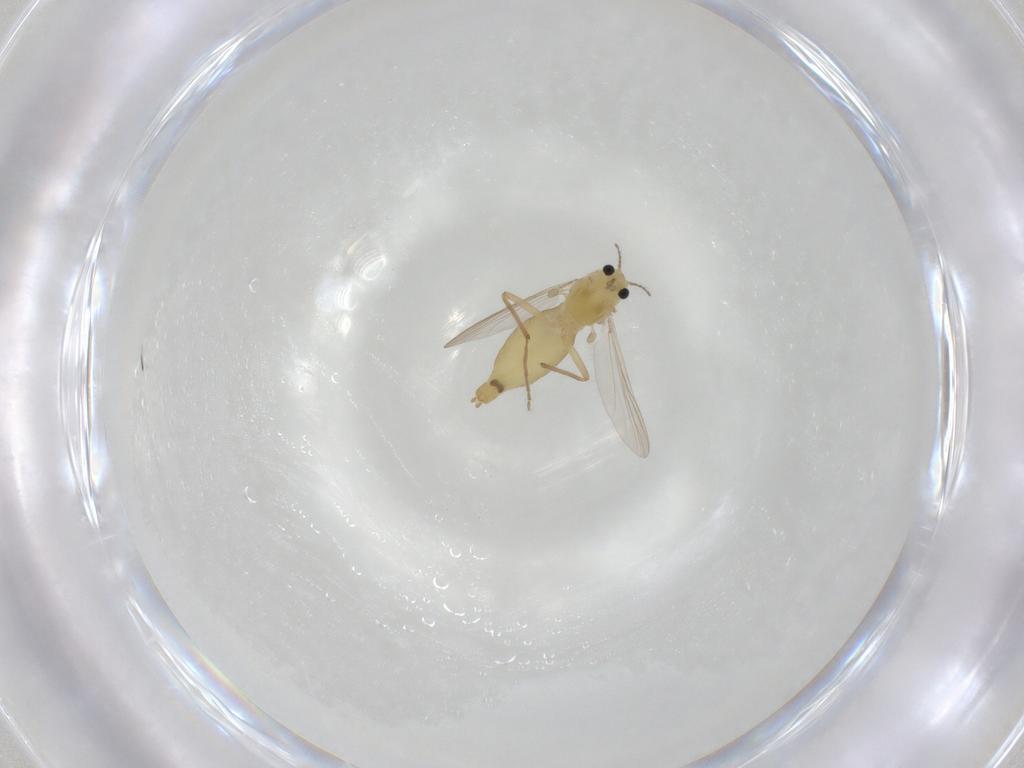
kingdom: Animalia
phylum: Arthropoda
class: Insecta
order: Diptera
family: Chironomidae
